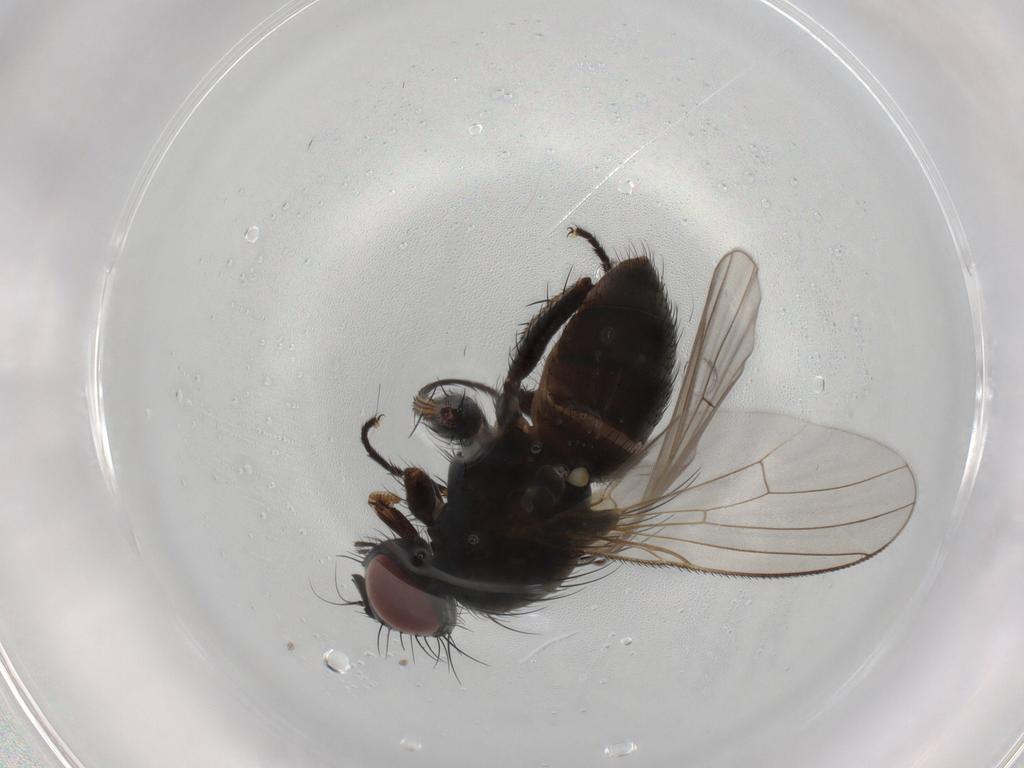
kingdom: Animalia
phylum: Arthropoda
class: Insecta
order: Diptera
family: Muscidae
